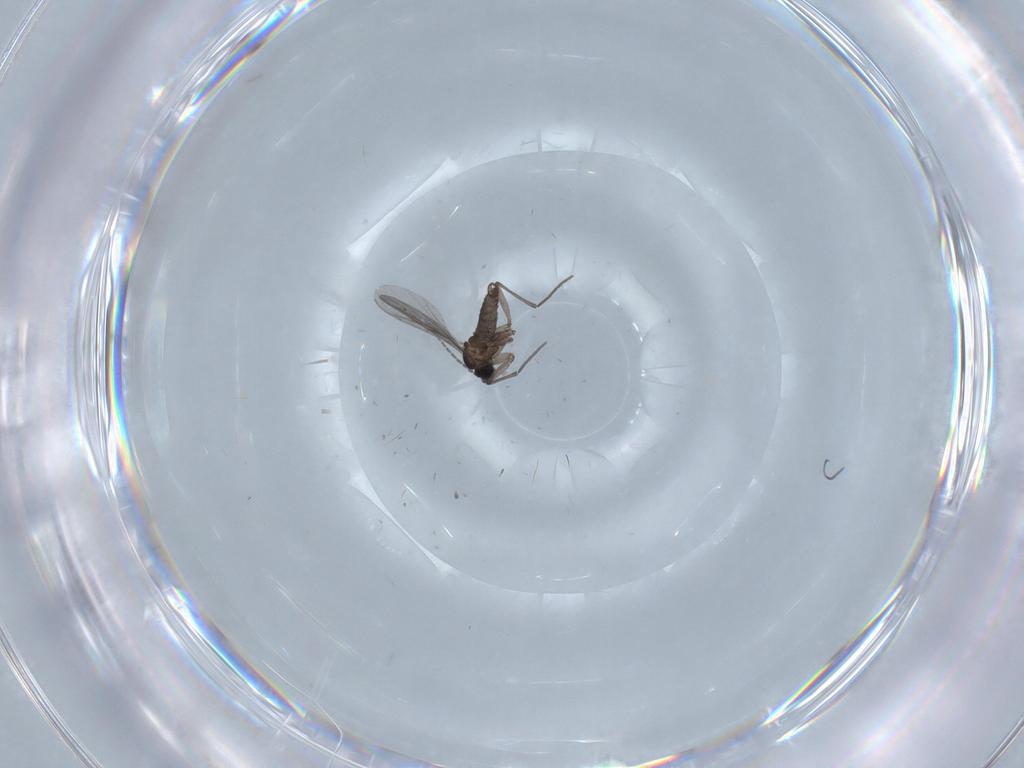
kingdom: Animalia
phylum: Arthropoda
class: Insecta
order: Diptera
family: Sciaridae
